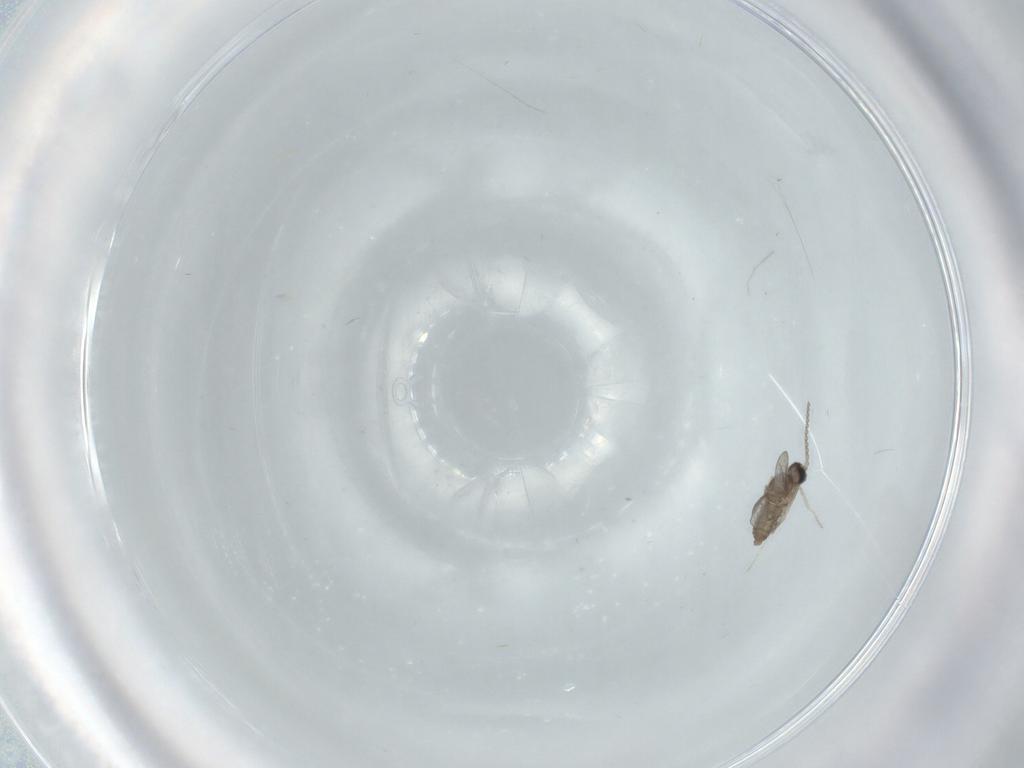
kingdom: Animalia
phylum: Arthropoda
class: Insecta
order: Diptera
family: Cecidomyiidae
